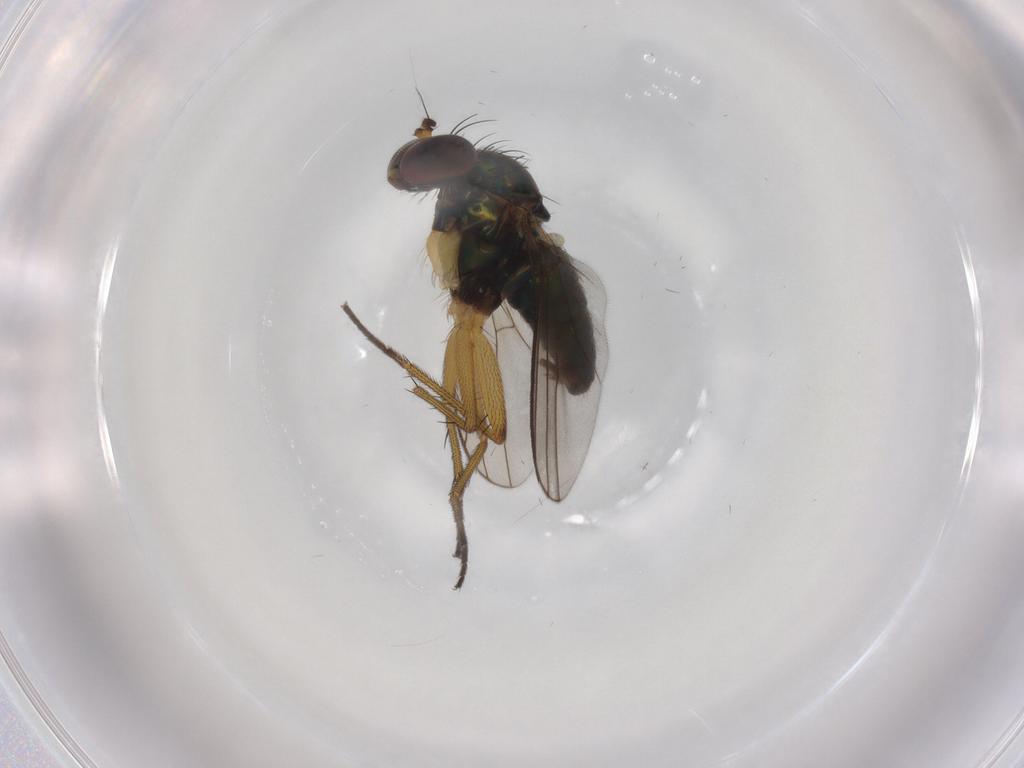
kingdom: Animalia
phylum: Arthropoda
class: Insecta
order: Diptera
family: Dolichopodidae
